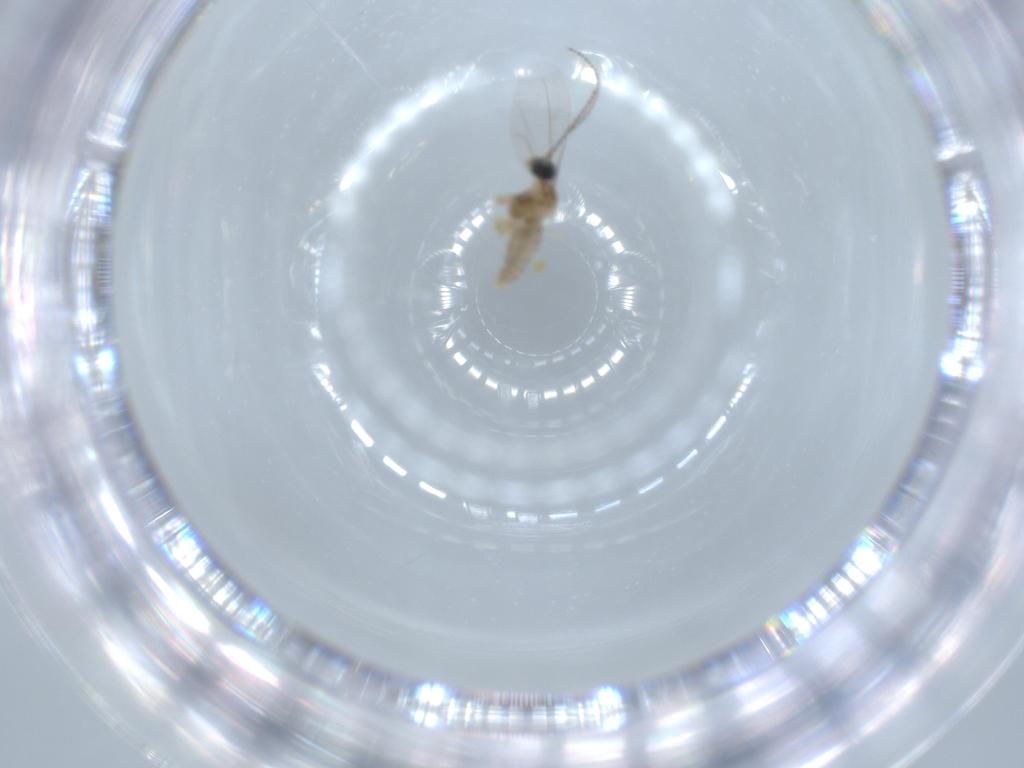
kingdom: Animalia
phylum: Arthropoda
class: Insecta
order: Diptera
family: Cecidomyiidae
